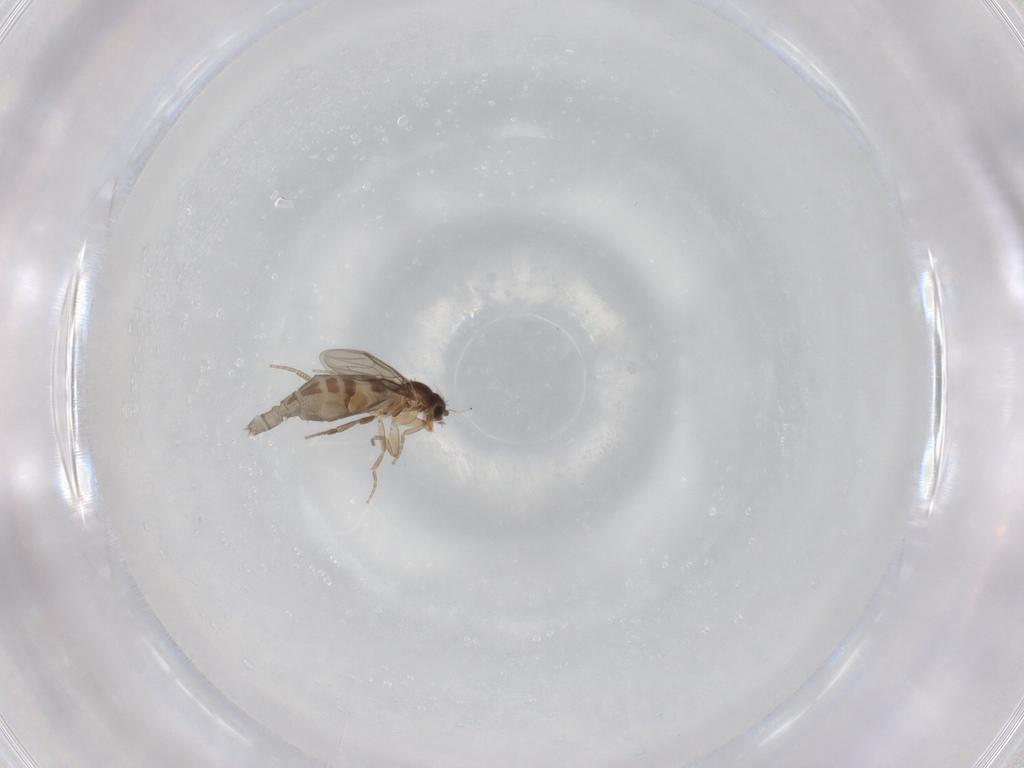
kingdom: Animalia
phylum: Arthropoda
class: Insecta
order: Diptera
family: Phoridae
